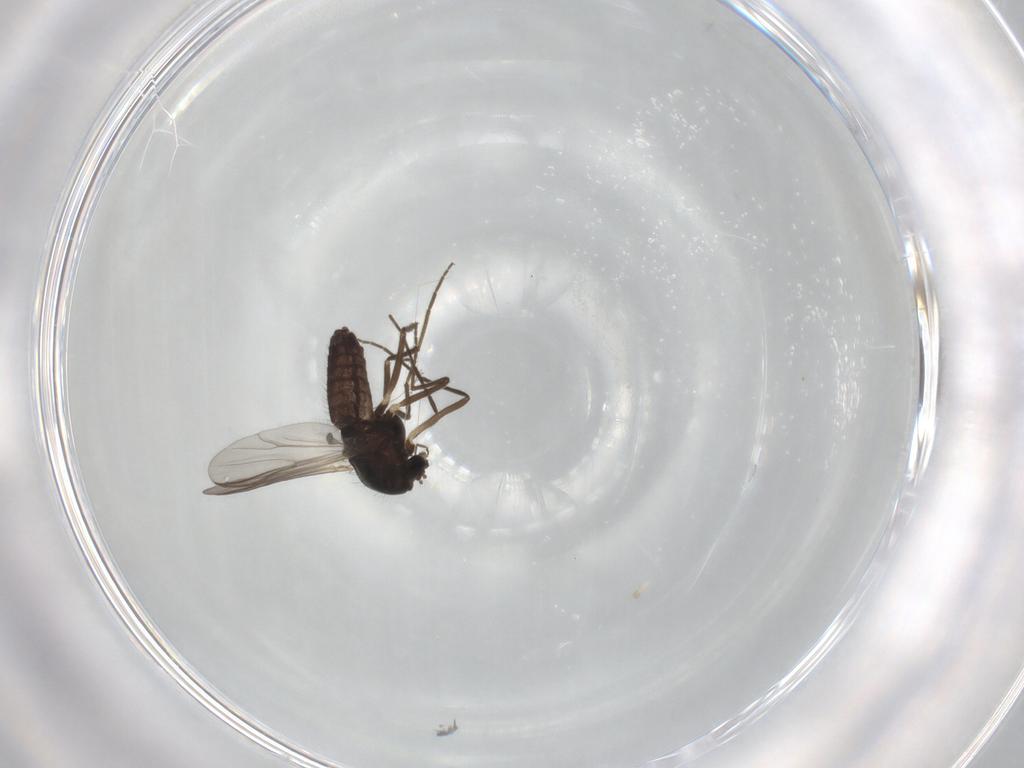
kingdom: Animalia
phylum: Arthropoda
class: Insecta
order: Diptera
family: Chironomidae
